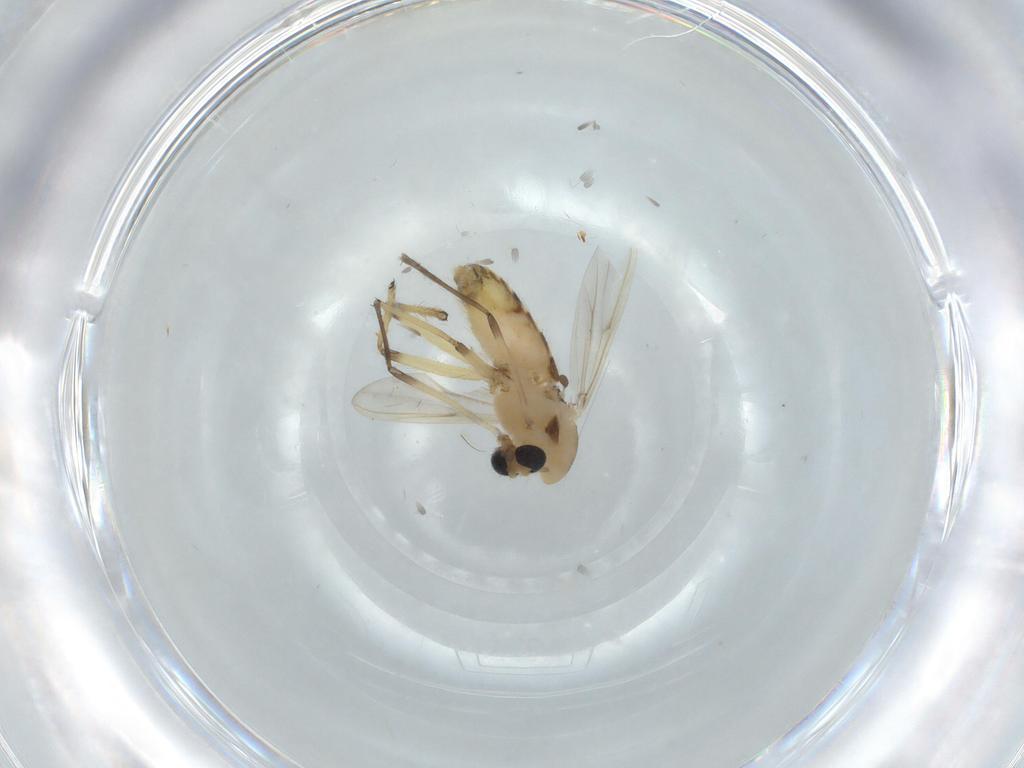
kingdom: Animalia
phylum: Arthropoda
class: Insecta
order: Diptera
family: Chironomidae
